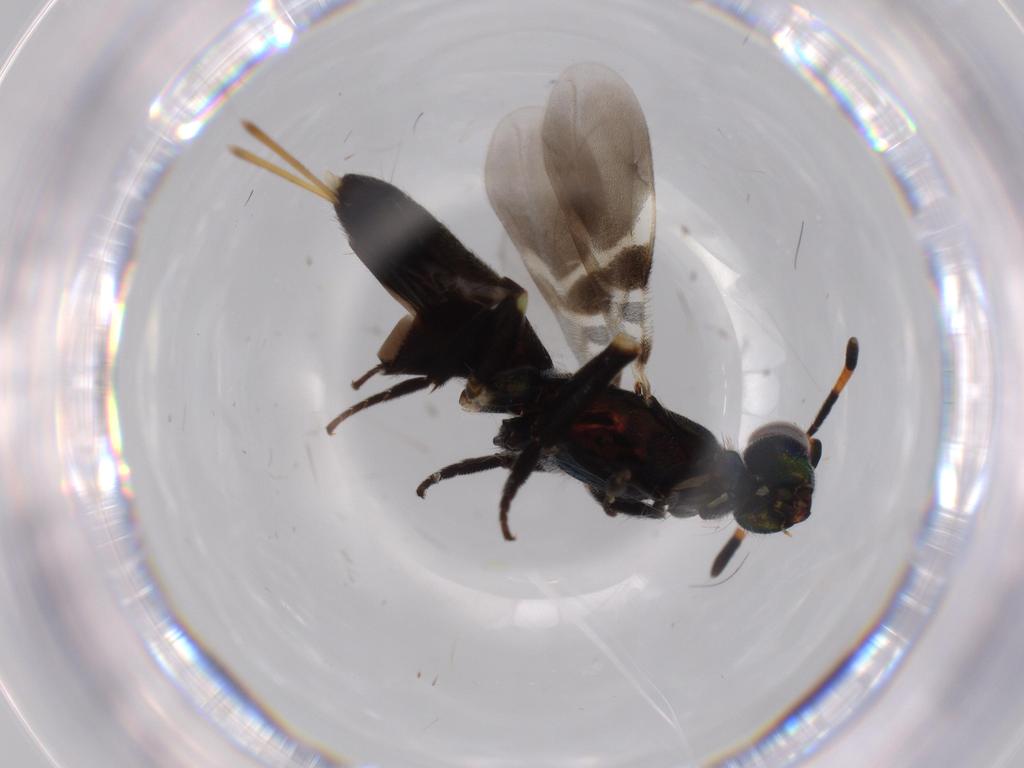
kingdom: Animalia
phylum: Arthropoda
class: Insecta
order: Hymenoptera
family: Eupelmidae
